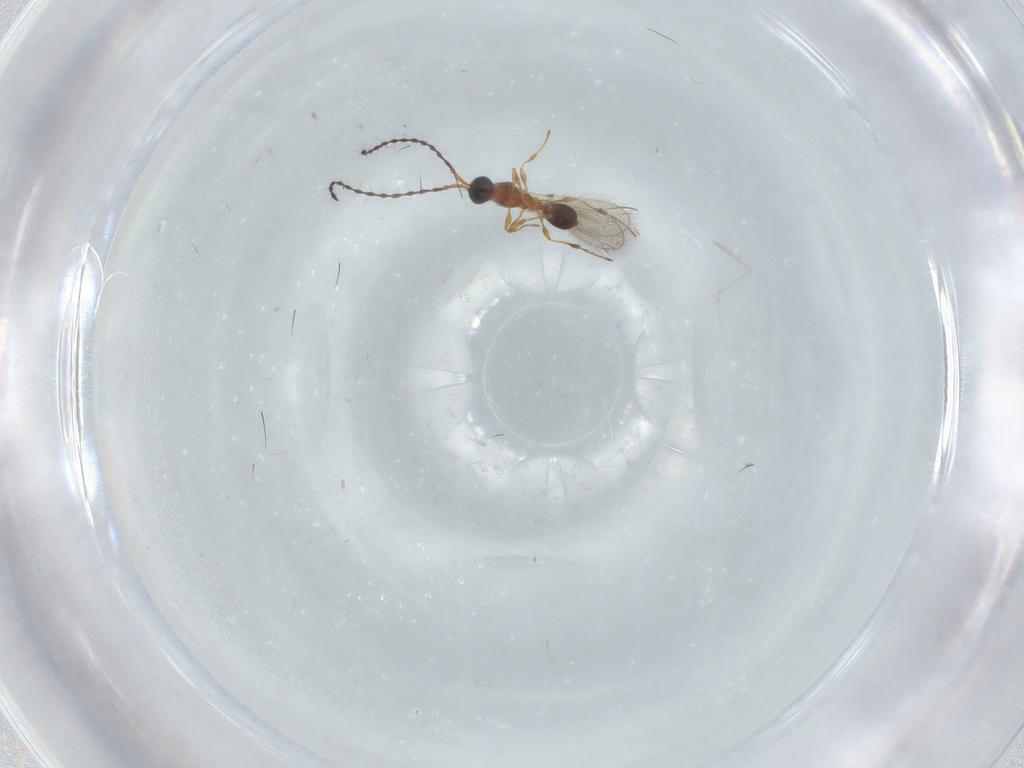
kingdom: Animalia
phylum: Arthropoda
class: Insecta
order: Hymenoptera
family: Diapriidae
